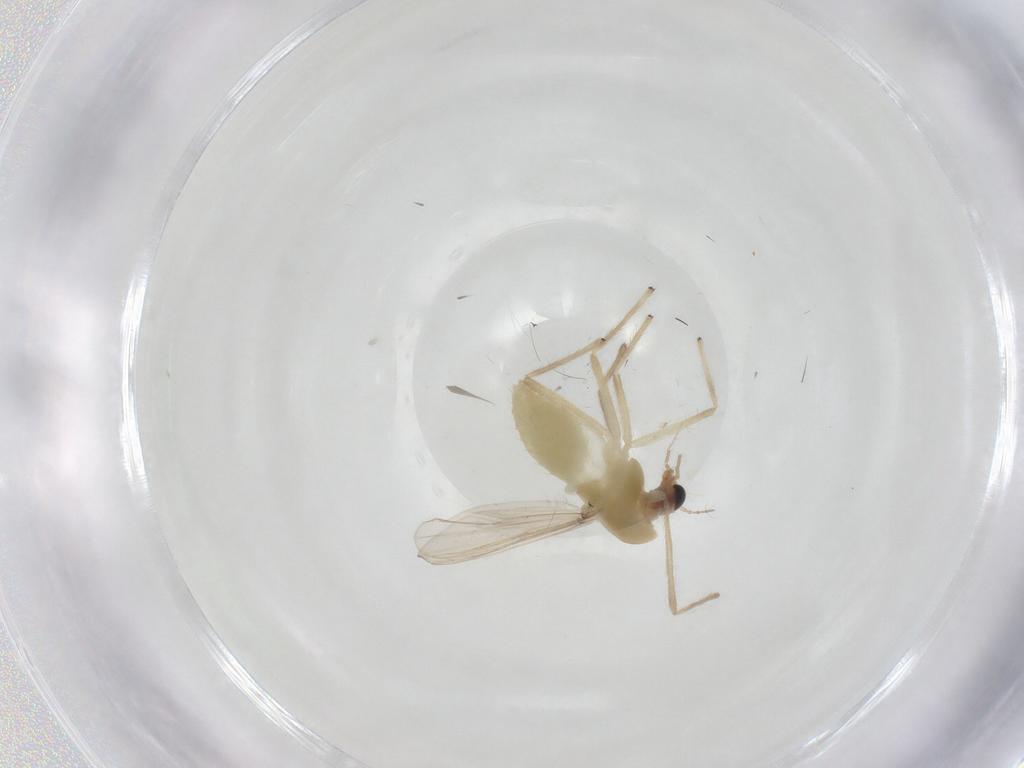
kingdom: Animalia
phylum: Arthropoda
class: Insecta
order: Diptera
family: Chironomidae
